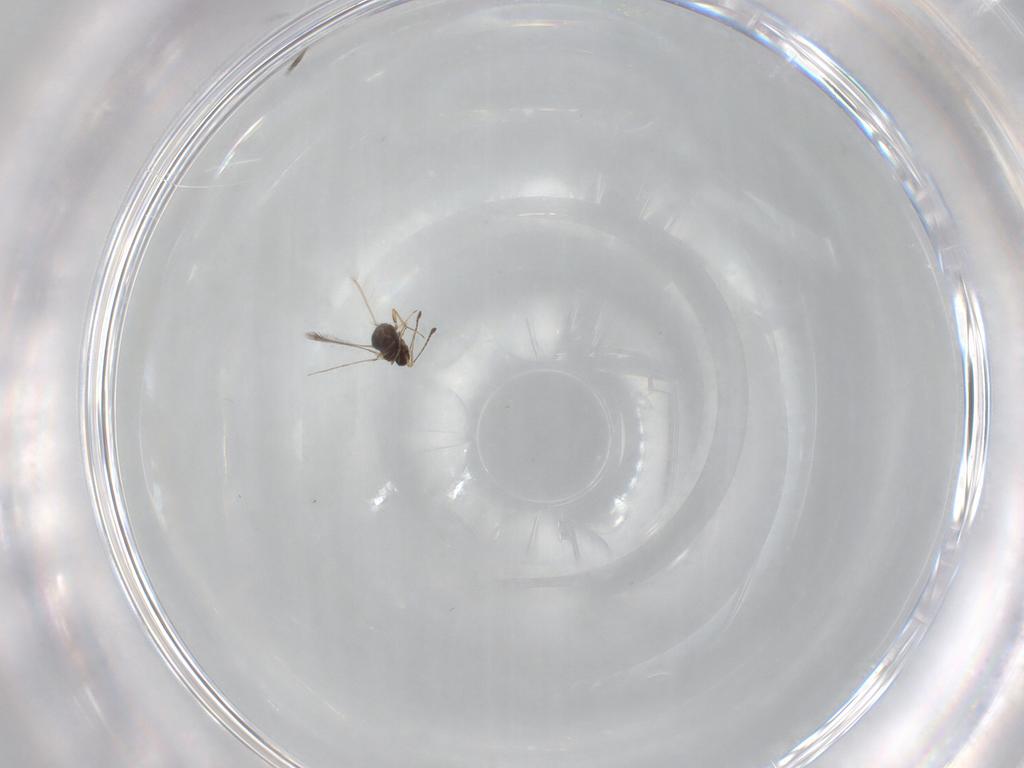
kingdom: Animalia
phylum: Arthropoda
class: Insecta
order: Hymenoptera
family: Mymaridae
